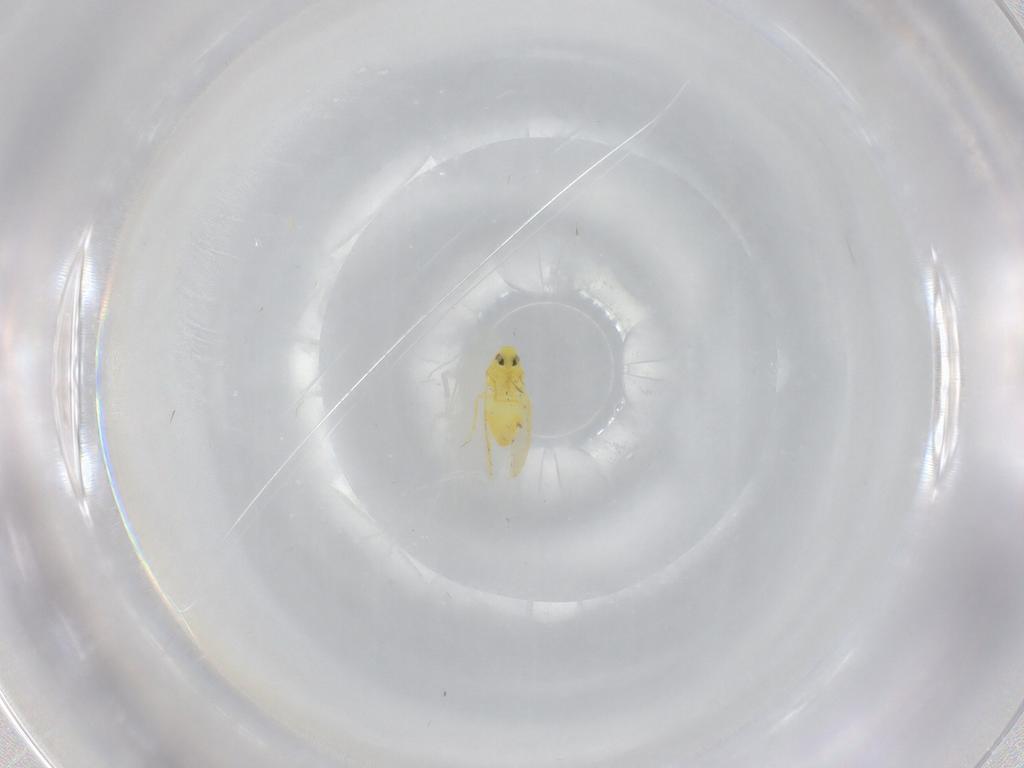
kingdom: Animalia
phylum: Arthropoda
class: Insecta
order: Hemiptera
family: Aleyrodidae
